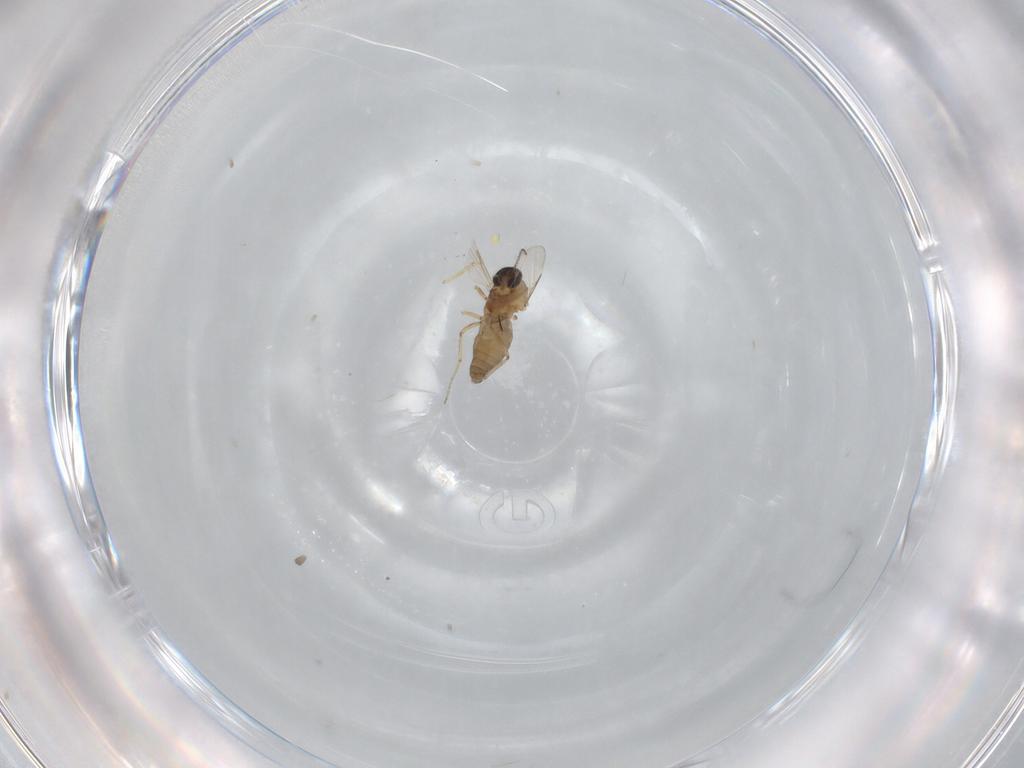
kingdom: Animalia
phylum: Arthropoda
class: Insecta
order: Diptera
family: Ceratopogonidae
